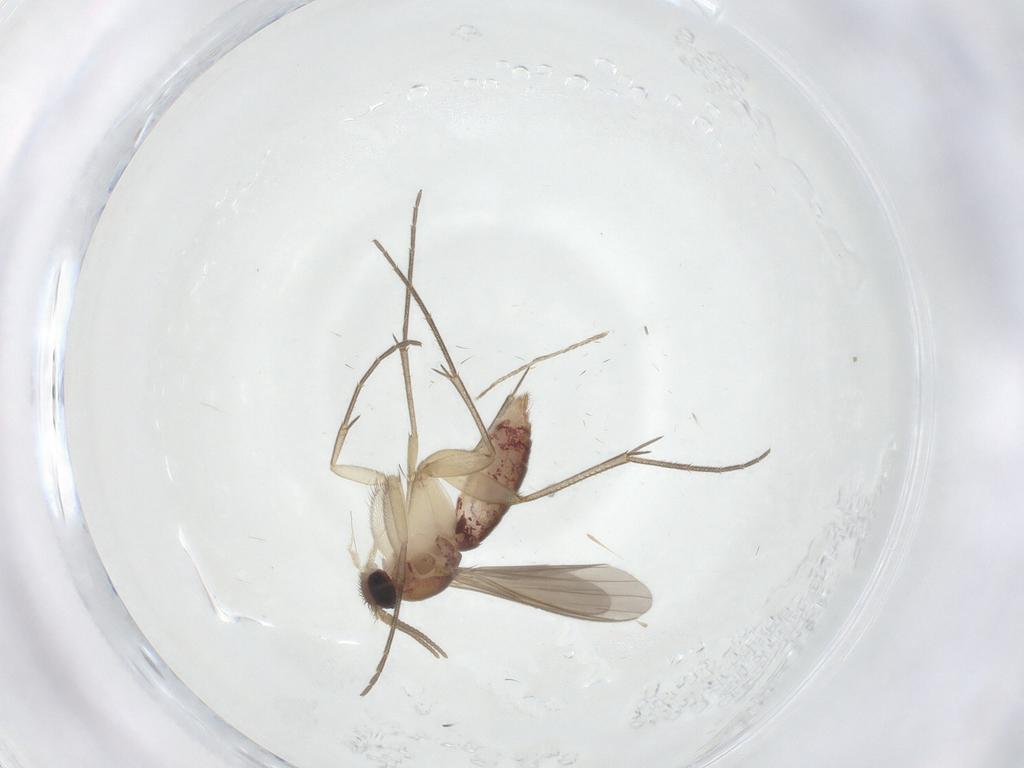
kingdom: Animalia
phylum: Arthropoda
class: Insecta
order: Diptera
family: Mycetophilidae
